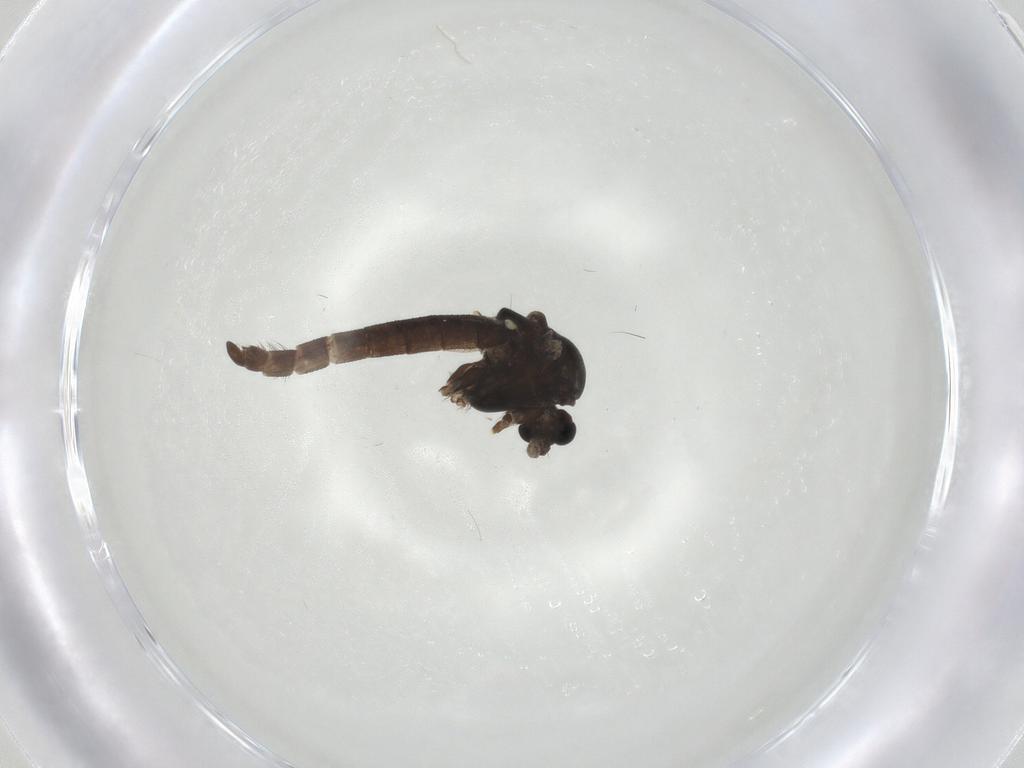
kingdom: Animalia
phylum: Arthropoda
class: Insecta
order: Diptera
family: Chironomidae
